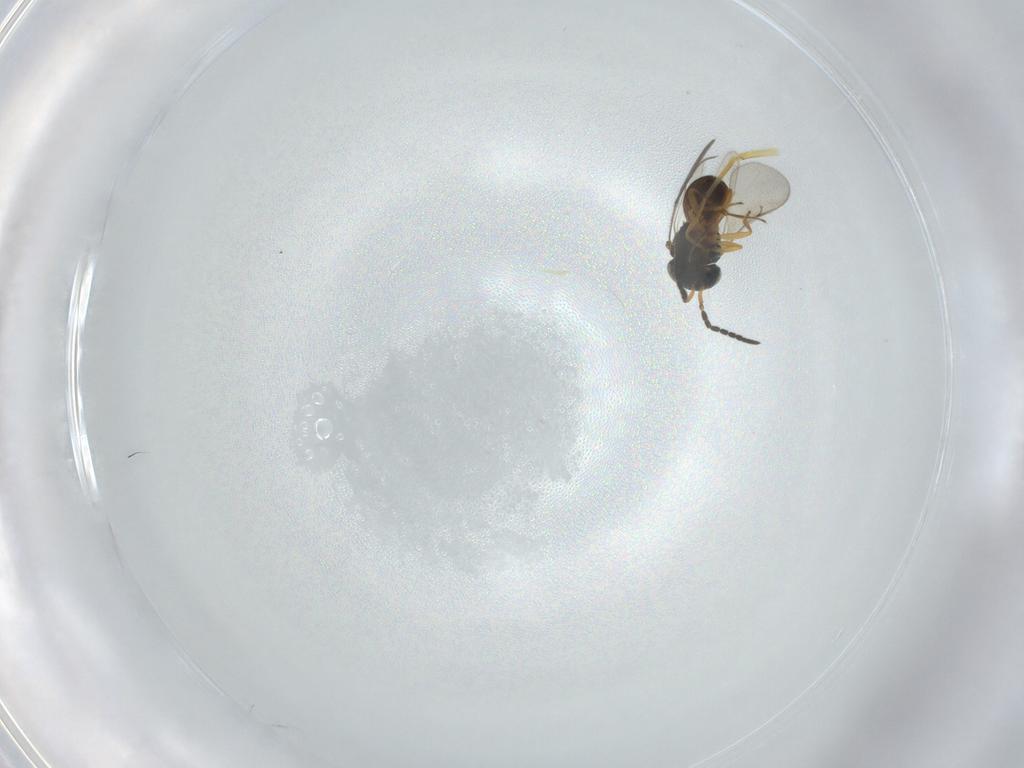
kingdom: Animalia
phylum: Arthropoda
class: Insecta
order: Hymenoptera
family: Scelionidae
